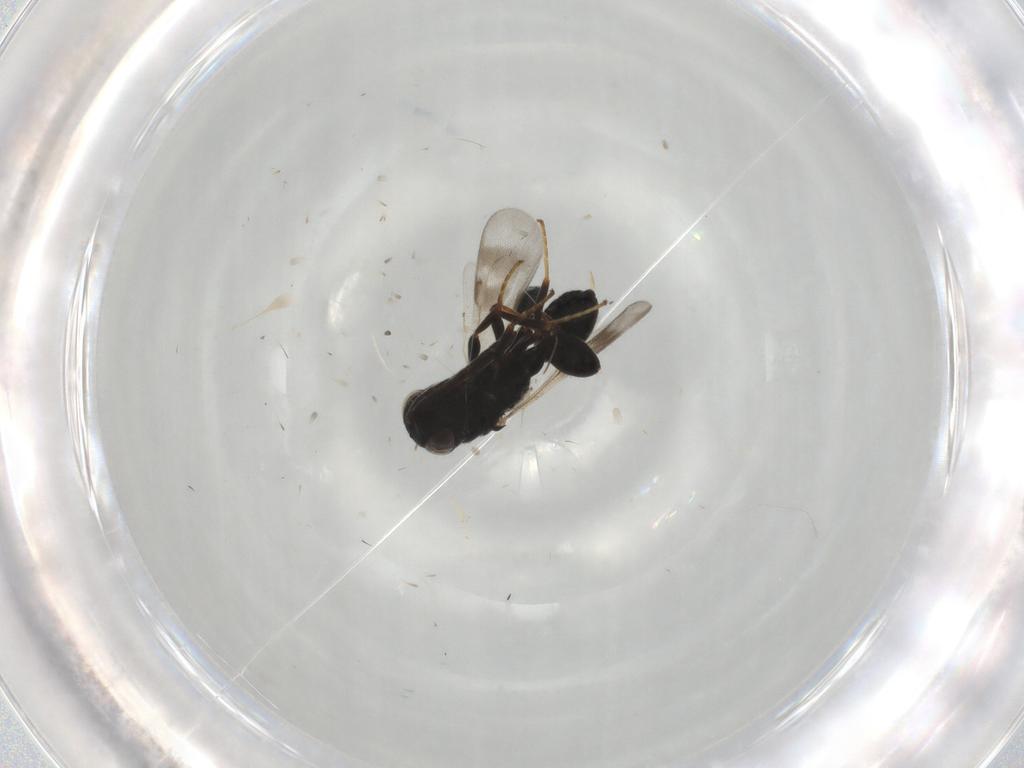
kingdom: Animalia
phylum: Arthropoda
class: Insecta
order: Hymenoptera
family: Chalcididae
